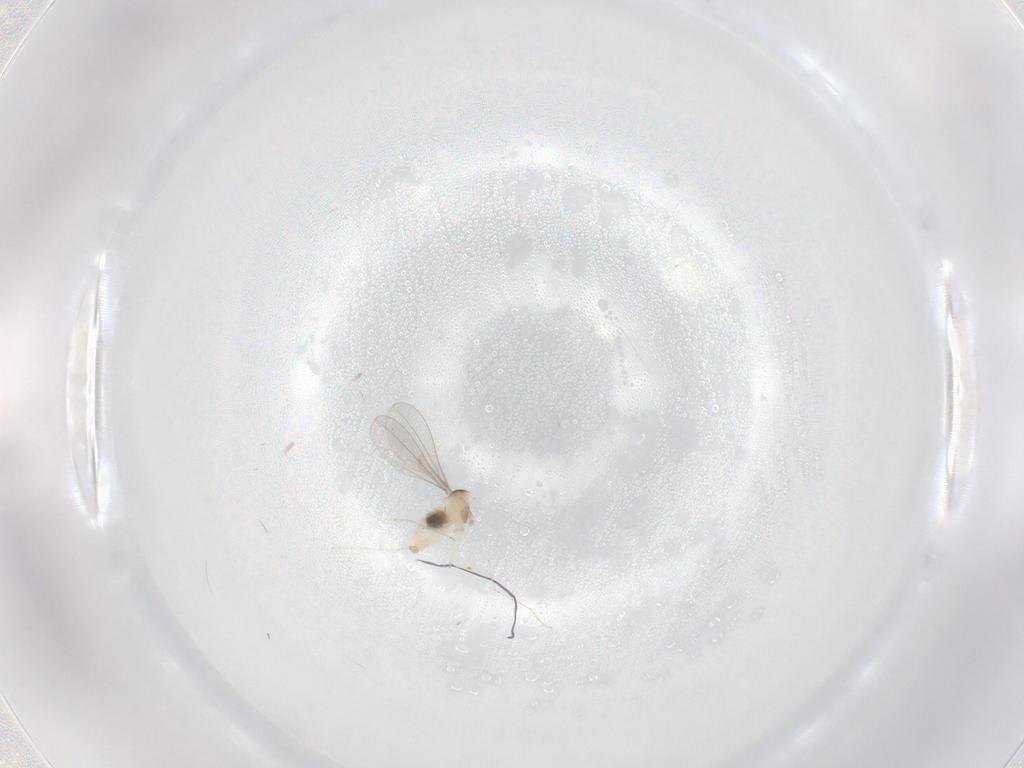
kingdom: Animalia
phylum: Arthropoda
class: Insecta
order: Diptera
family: Cecidomyiidae
